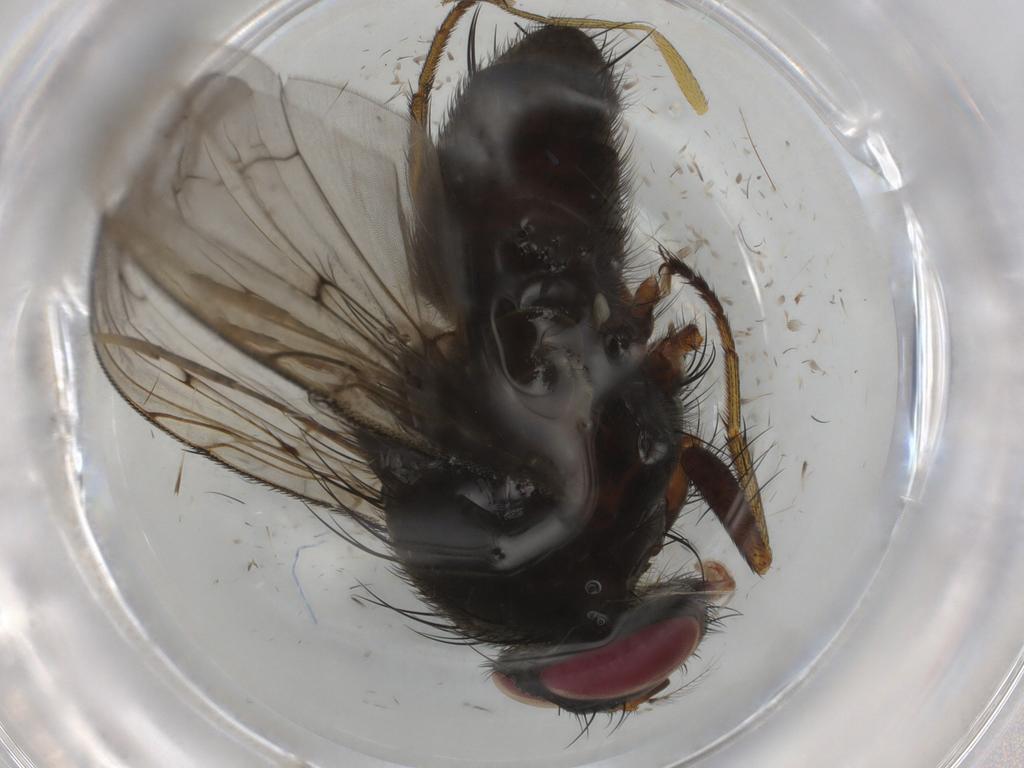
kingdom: Animalia
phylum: Arthropoda
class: Insecta
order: Diptera
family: Tachinidae
